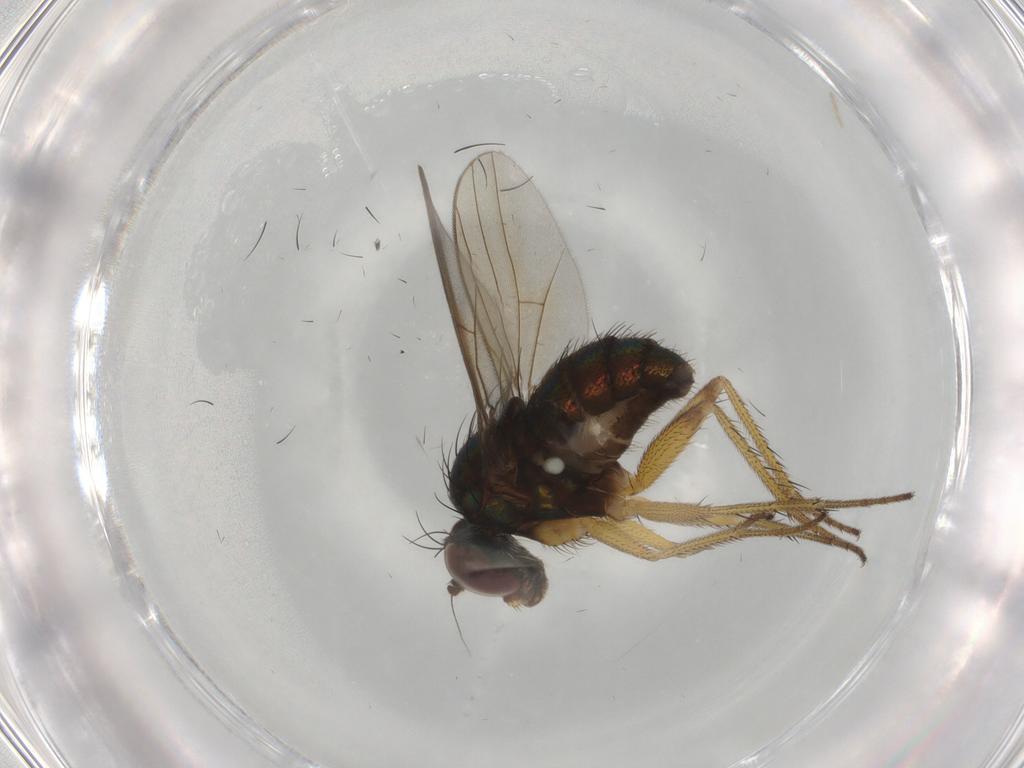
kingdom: Animalia
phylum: Arthropoda
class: Insecta
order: Diptera
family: Dolichopodidae
